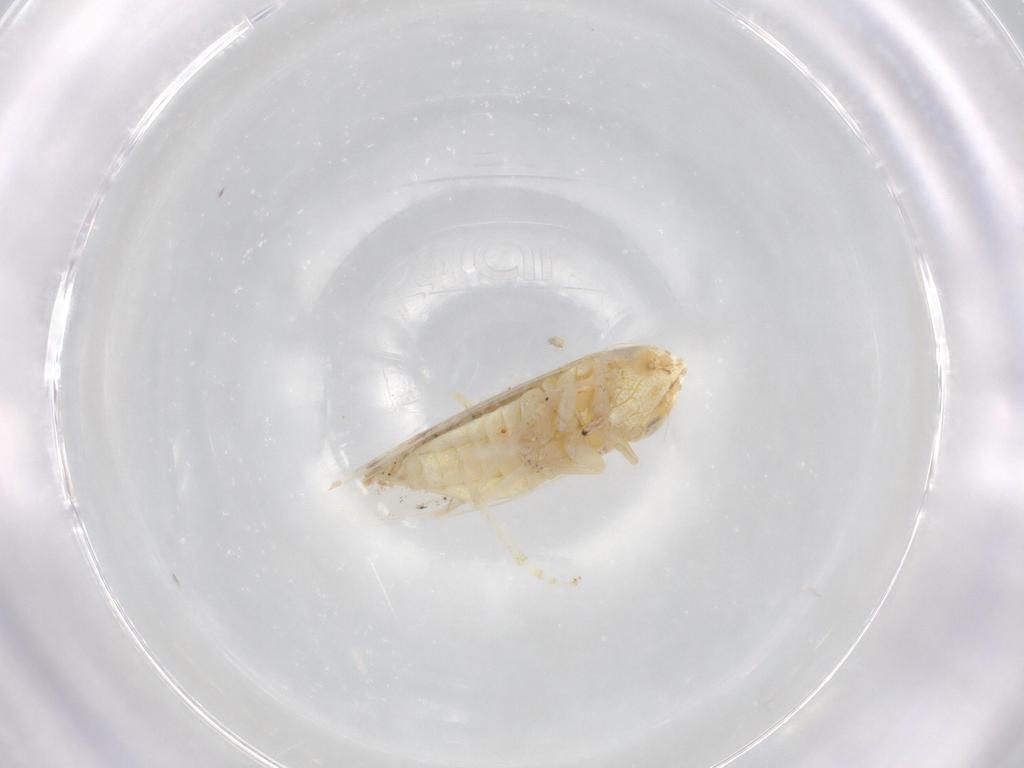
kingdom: Animalia
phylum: Arthropoda
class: Insecta
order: Hemiptera
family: Cicadellidae
